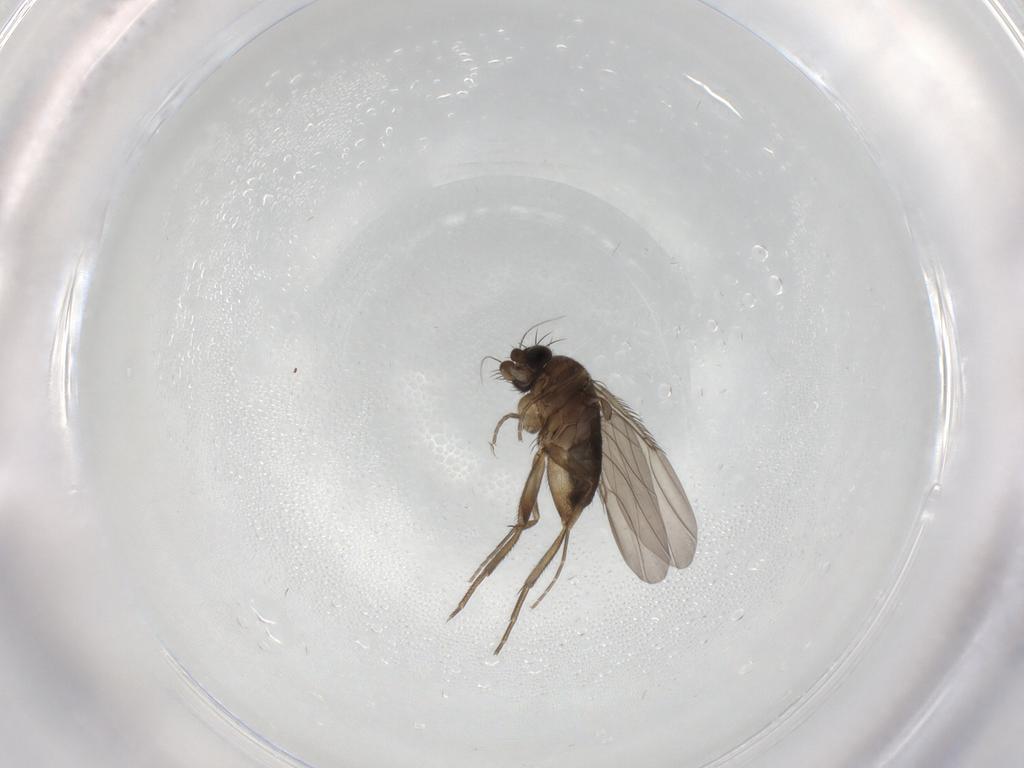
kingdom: Animalia
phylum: Arthropoda
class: Insecta
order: Diptera
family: Phoridae
